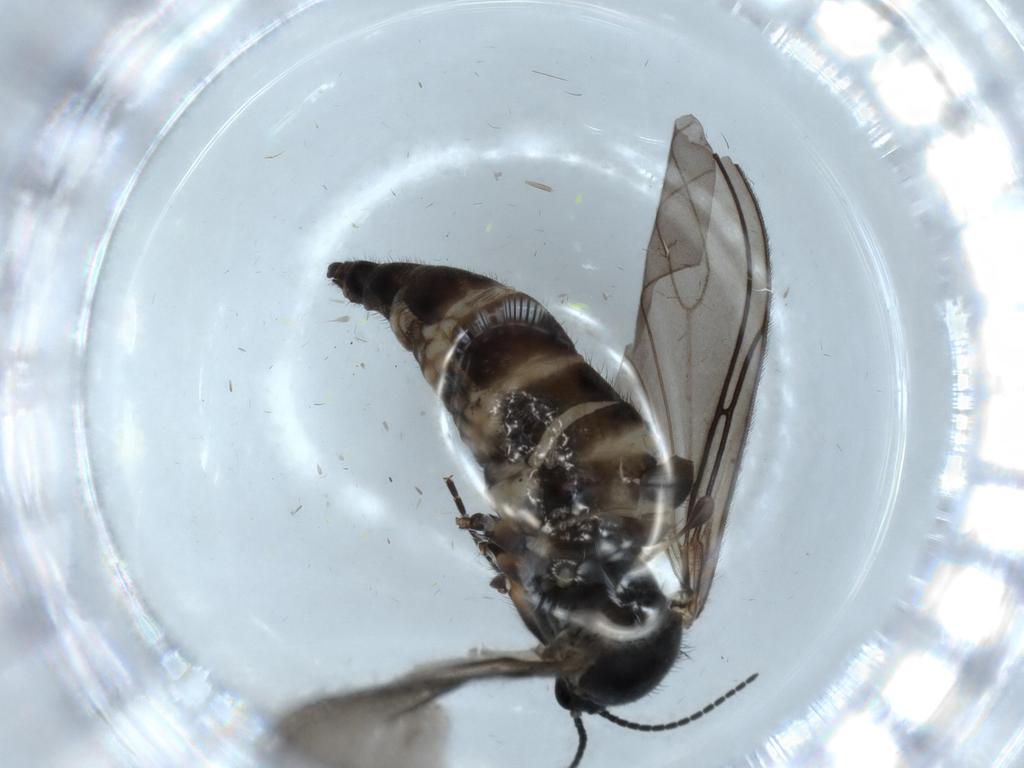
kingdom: Animalia
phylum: Arthropoda
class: Insecta
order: Diptera
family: Sciaridae
